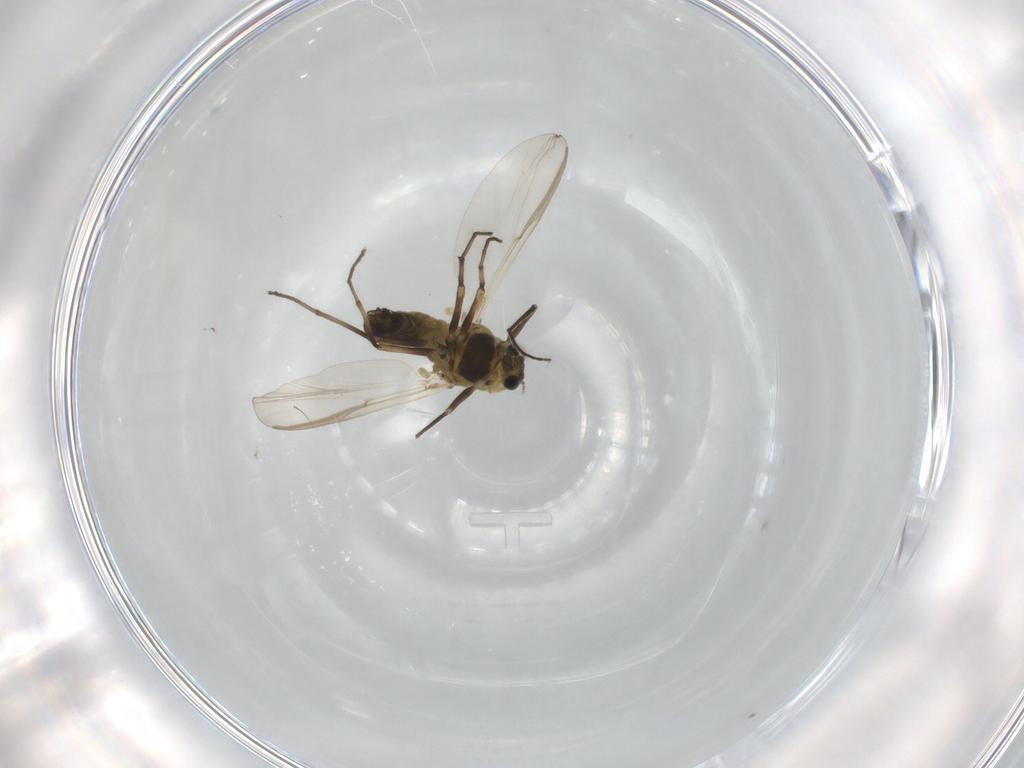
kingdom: Animalia
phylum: Arthropoda
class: Insecta
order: Diptera
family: Chironomidae
